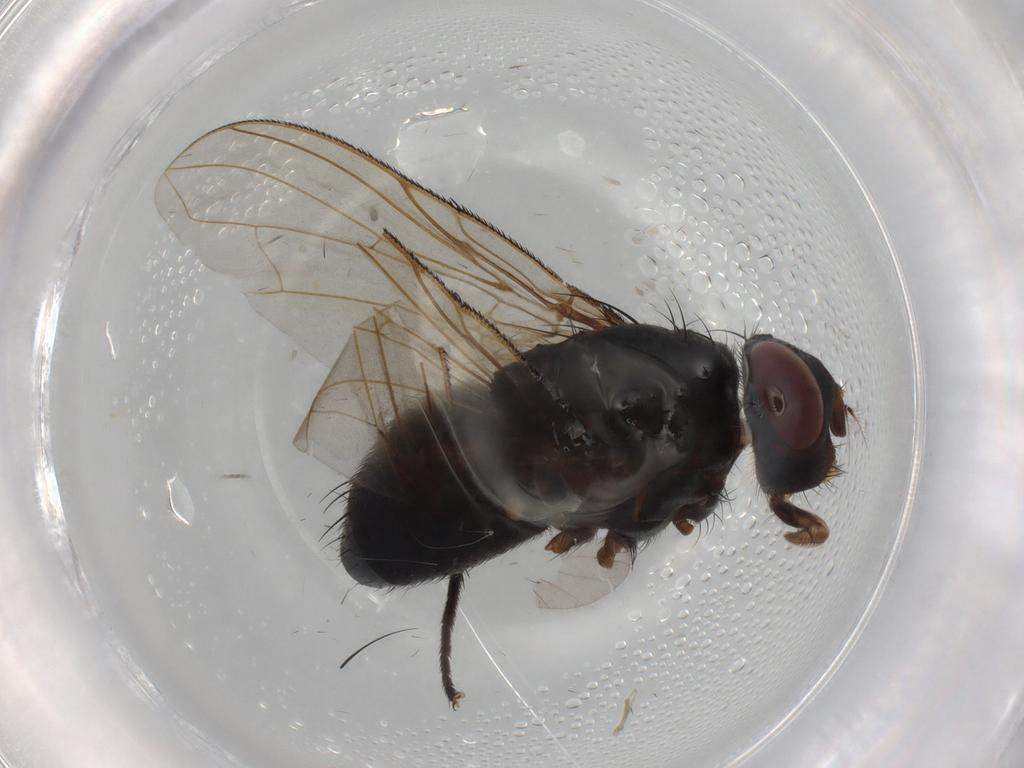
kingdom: Animalia
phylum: Arthropoda
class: Insecta
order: Diptera
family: Calliphoridae
